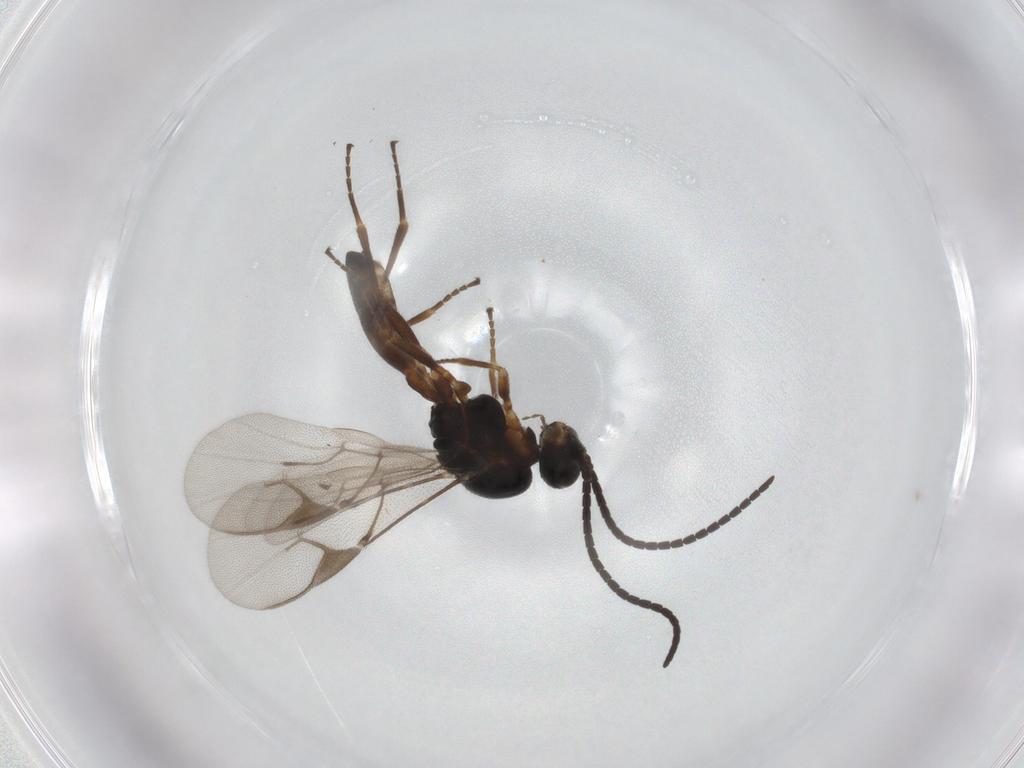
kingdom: Animalia
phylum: Arthropoda
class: Insecta
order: Hymenoptera
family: Braconidae
